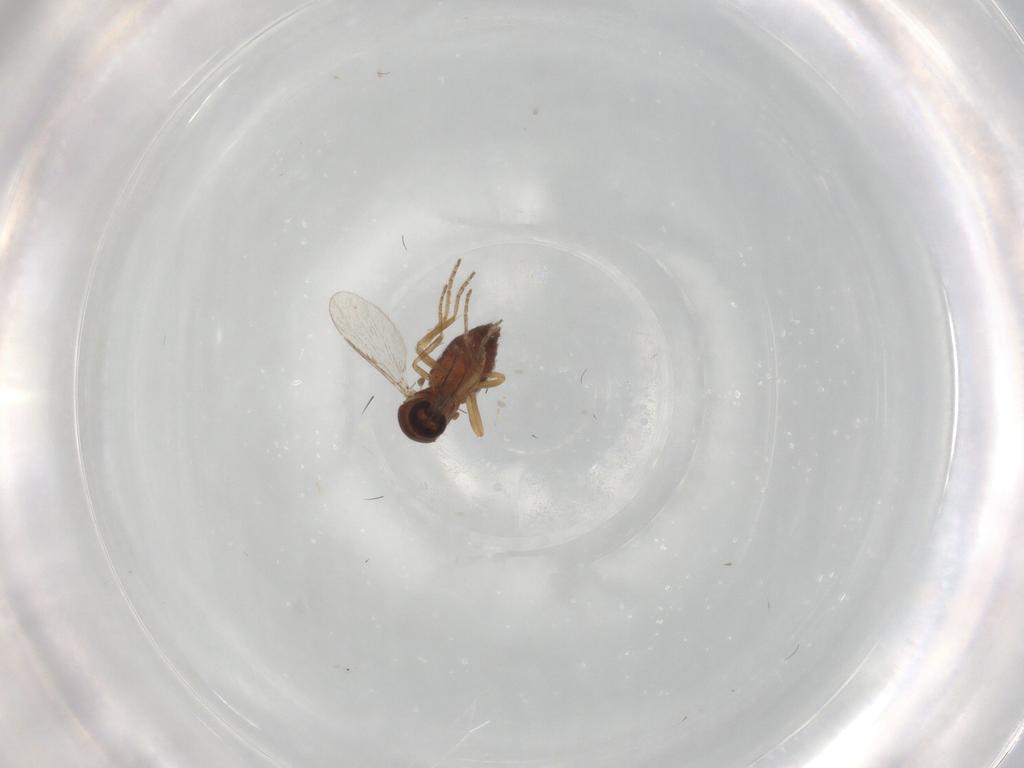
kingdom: Animalia
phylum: Arthropoda
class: Insecta
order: Diptera
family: Ceratopogonidae
